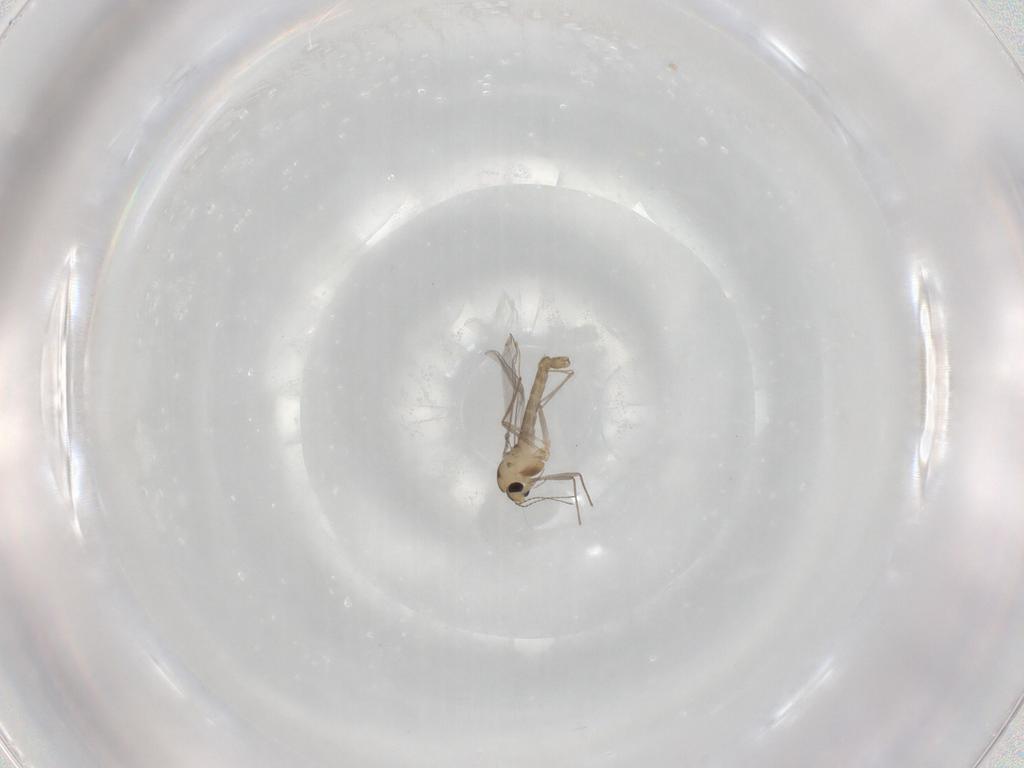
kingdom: Animalia
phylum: Arthropoda
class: Insecta
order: Diptera
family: Chironomidae
